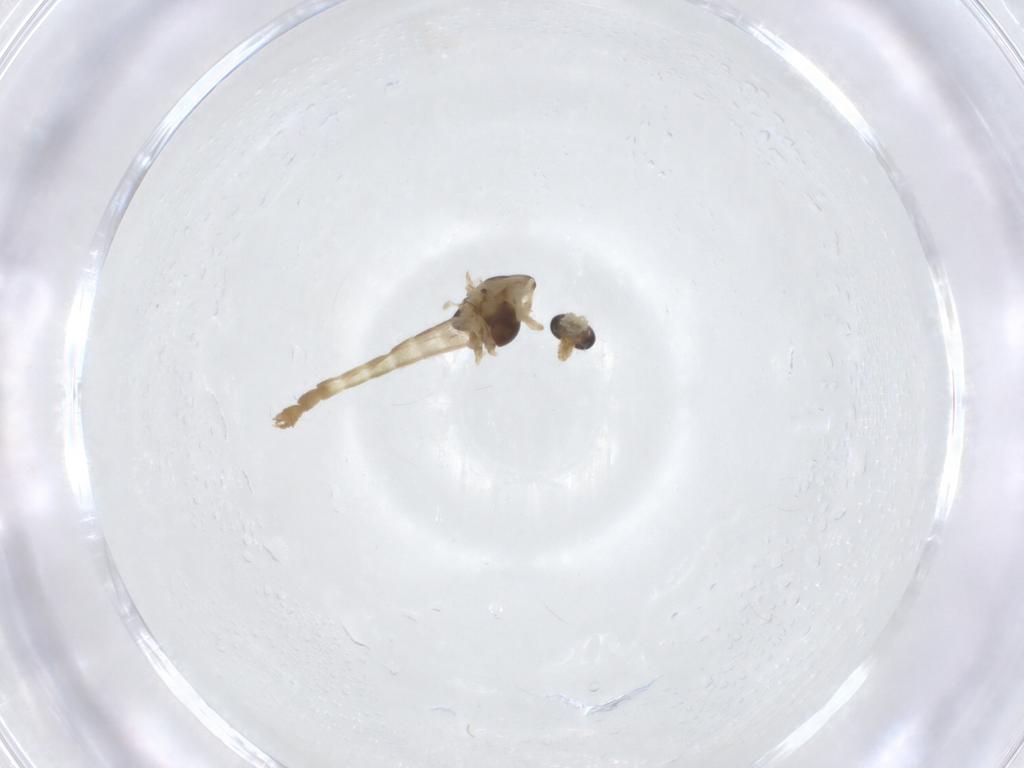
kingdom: Animalia
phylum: Arthropoda
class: Insecta
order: Diptera
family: Chironomidae
